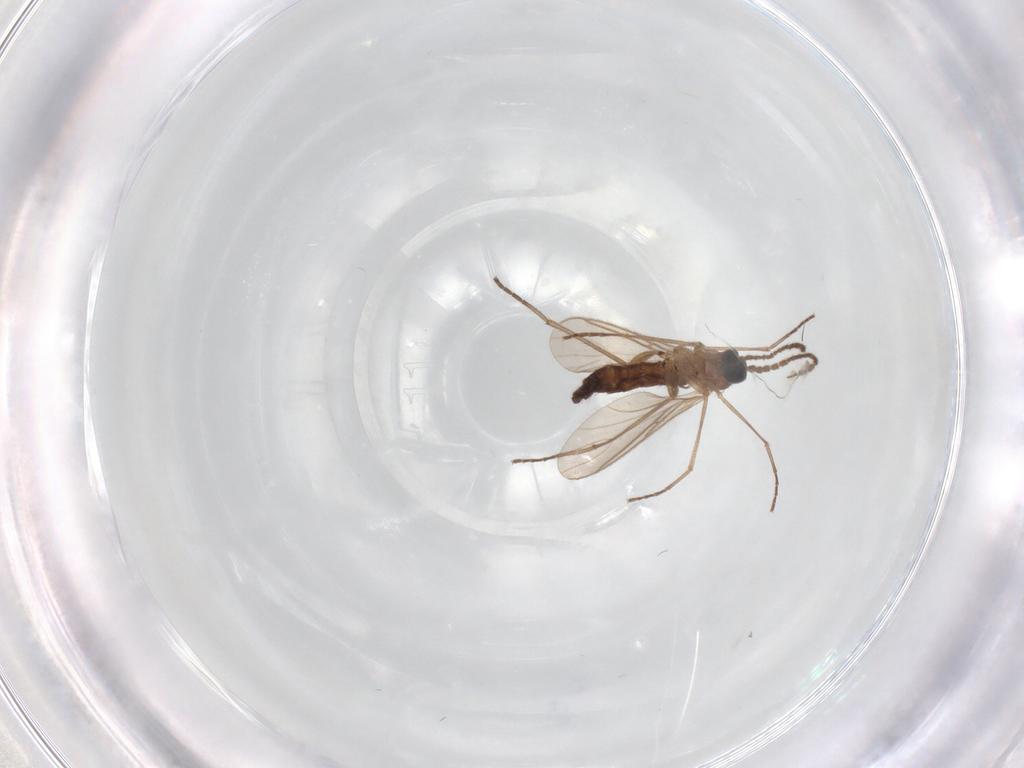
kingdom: Animalia
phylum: Arthropoda
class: Insecta
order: Diptera
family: Sciaridae
